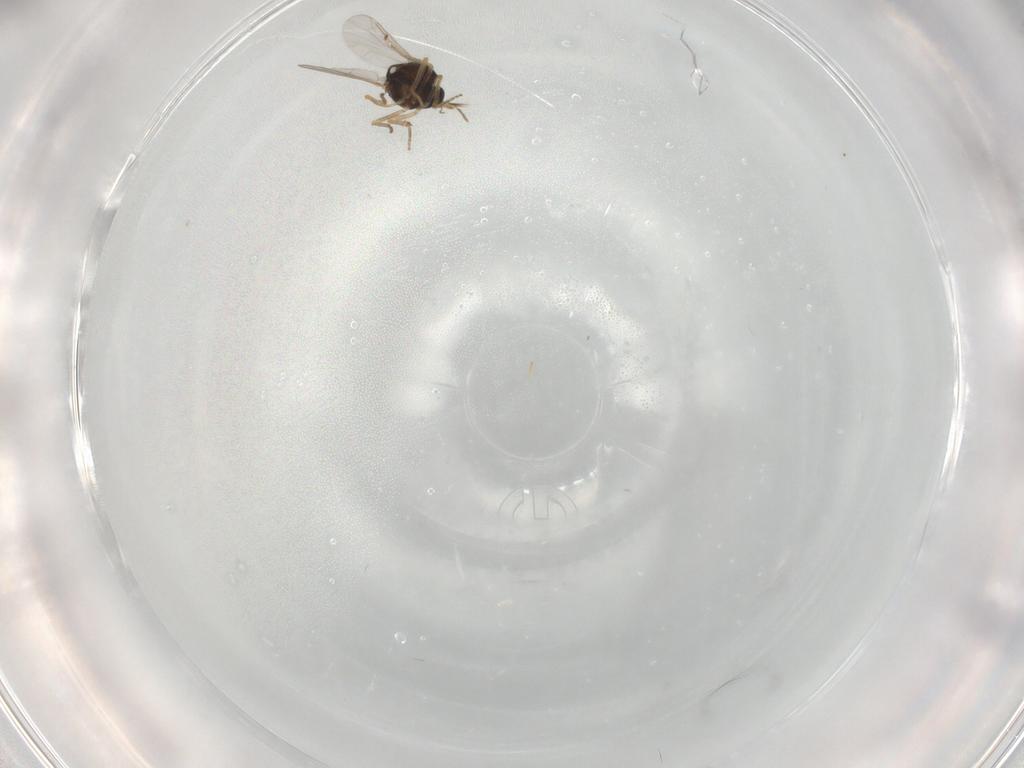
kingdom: Animalia
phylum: Arthropoda
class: Insecta
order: Diptera
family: Ceratopogonidae
